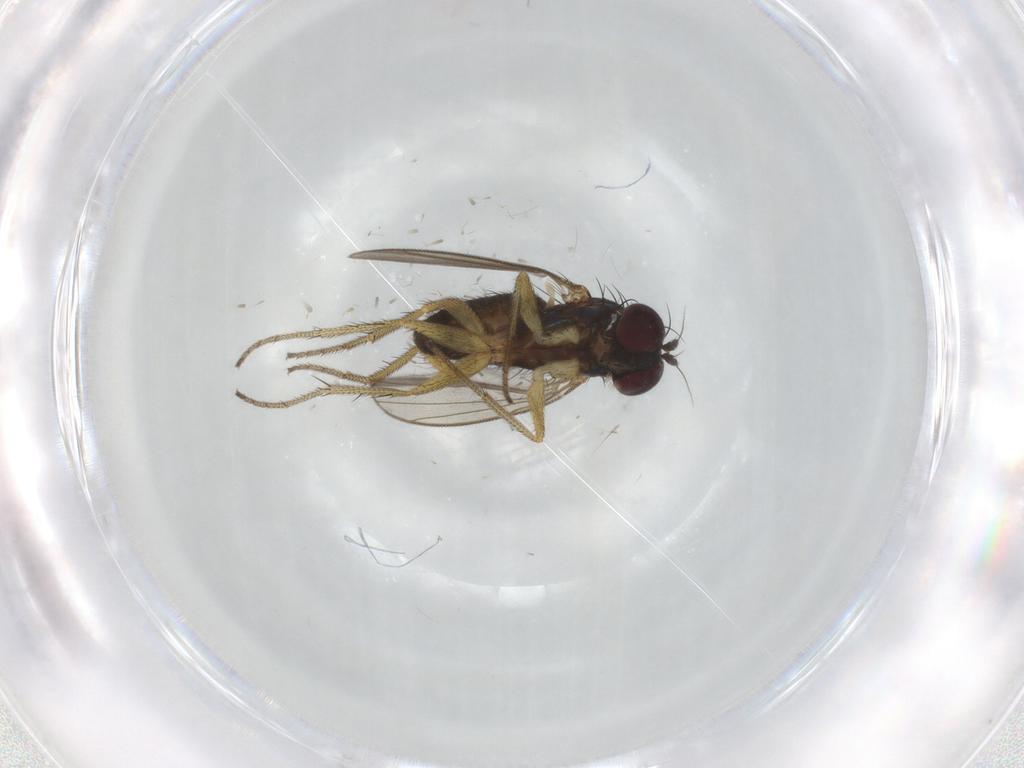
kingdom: Animalia
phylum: Arthropoda
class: Insecta
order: Diptera
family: Dolichopodidae
